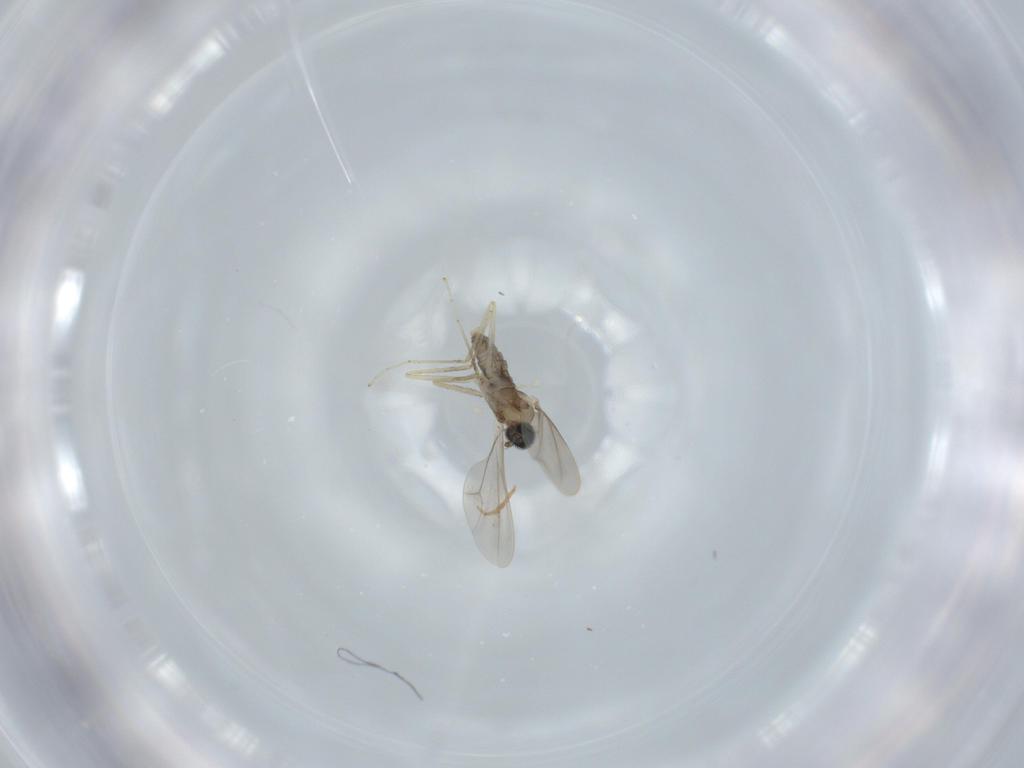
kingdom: Animalia
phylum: Arthropoda
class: Insecta
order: Diptera
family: Cecidomyiidae
